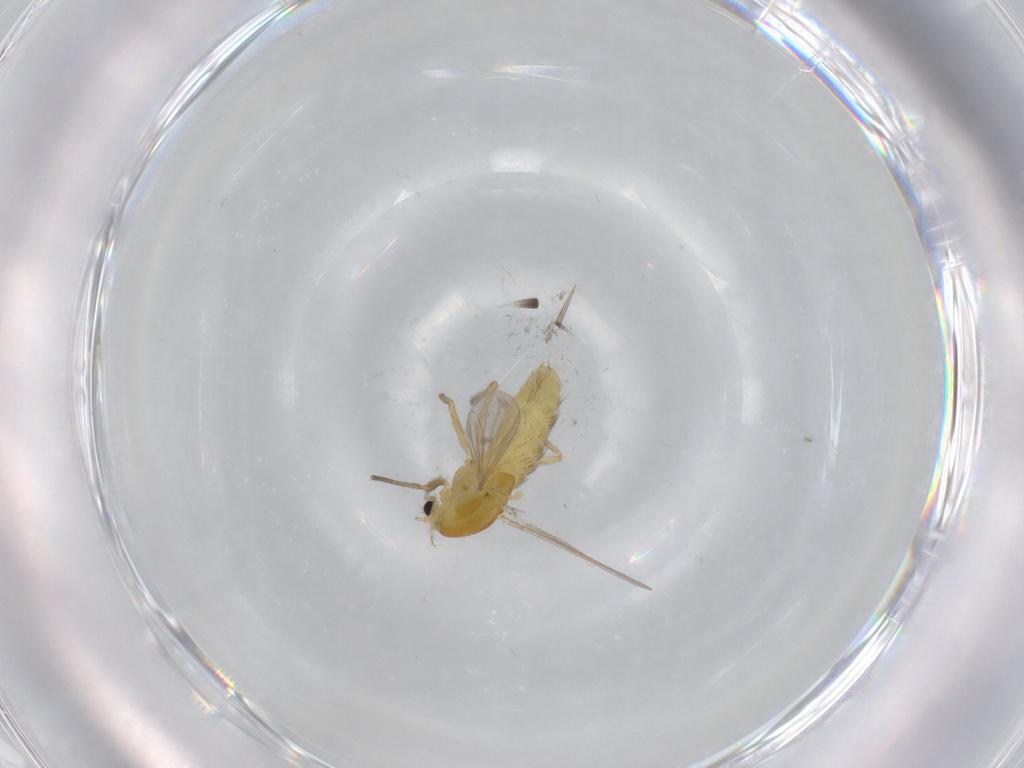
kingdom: Animalia
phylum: Arthropoda
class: Insecta
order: Diptera
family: Chironomidae
